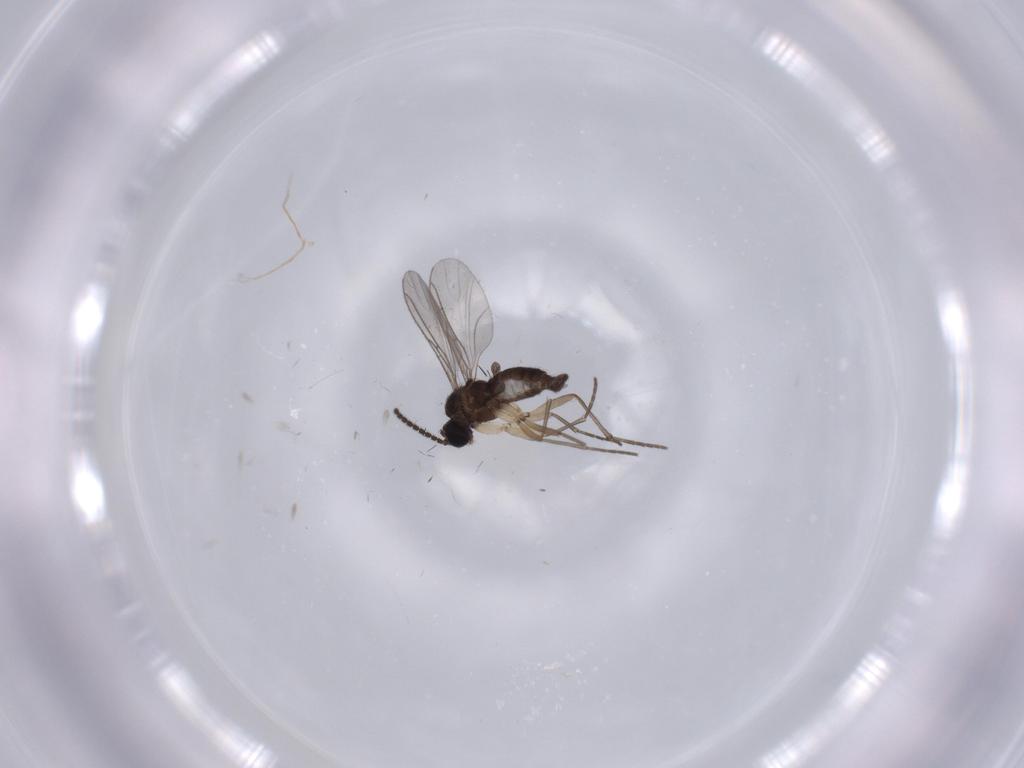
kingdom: Animalia
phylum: Arthropoda
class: Insecta
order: Diptera
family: Sciaridae
